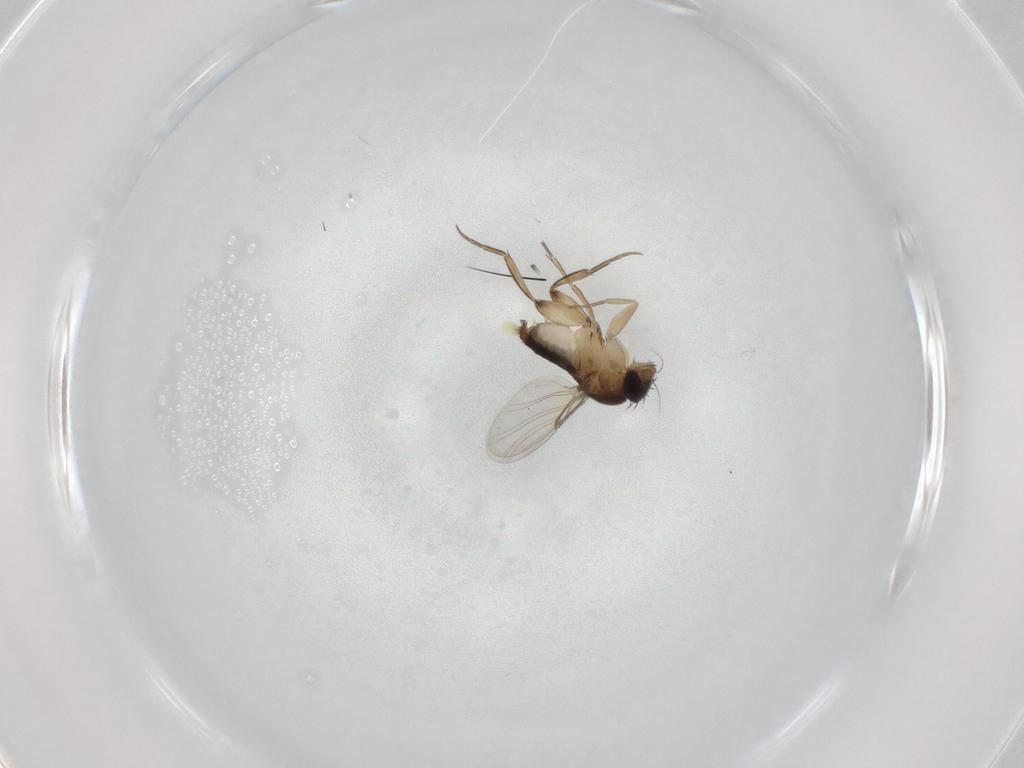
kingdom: Animalia
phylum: Arthropoda
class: Insecta
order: Diptera
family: Phoridae
